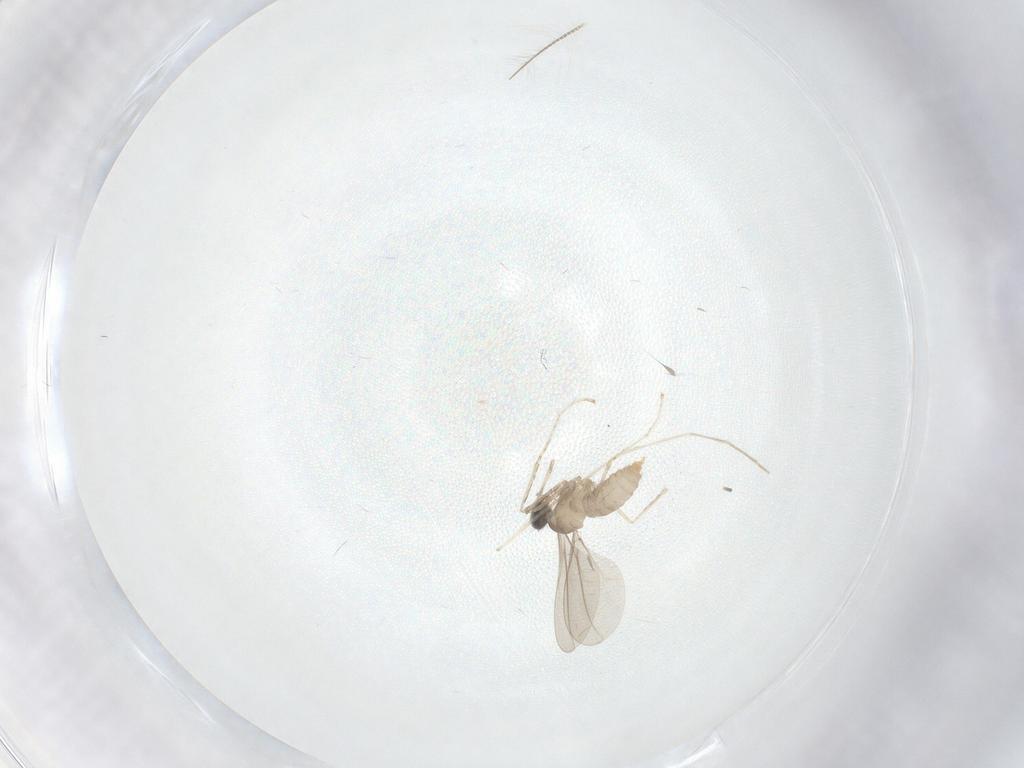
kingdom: Animalia
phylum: Arthropoda
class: Insecta
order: Diptera
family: Cecidomyiidae
